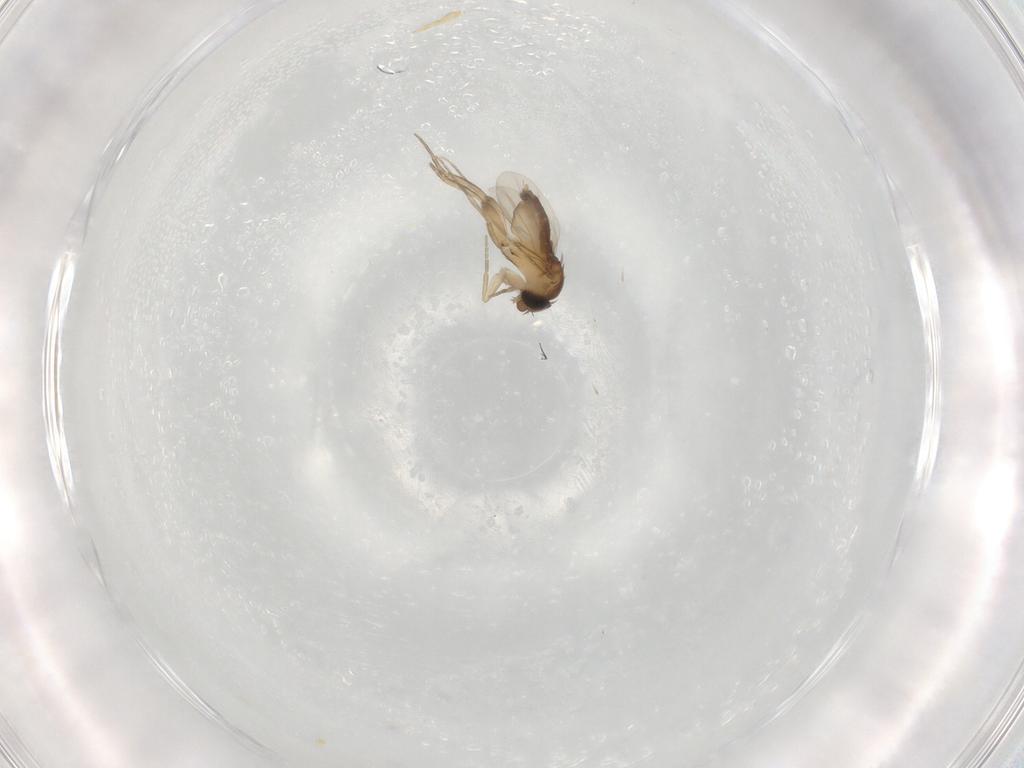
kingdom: Animalia
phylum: Arthropoda
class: Insecta
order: Diptera
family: Phoridae
